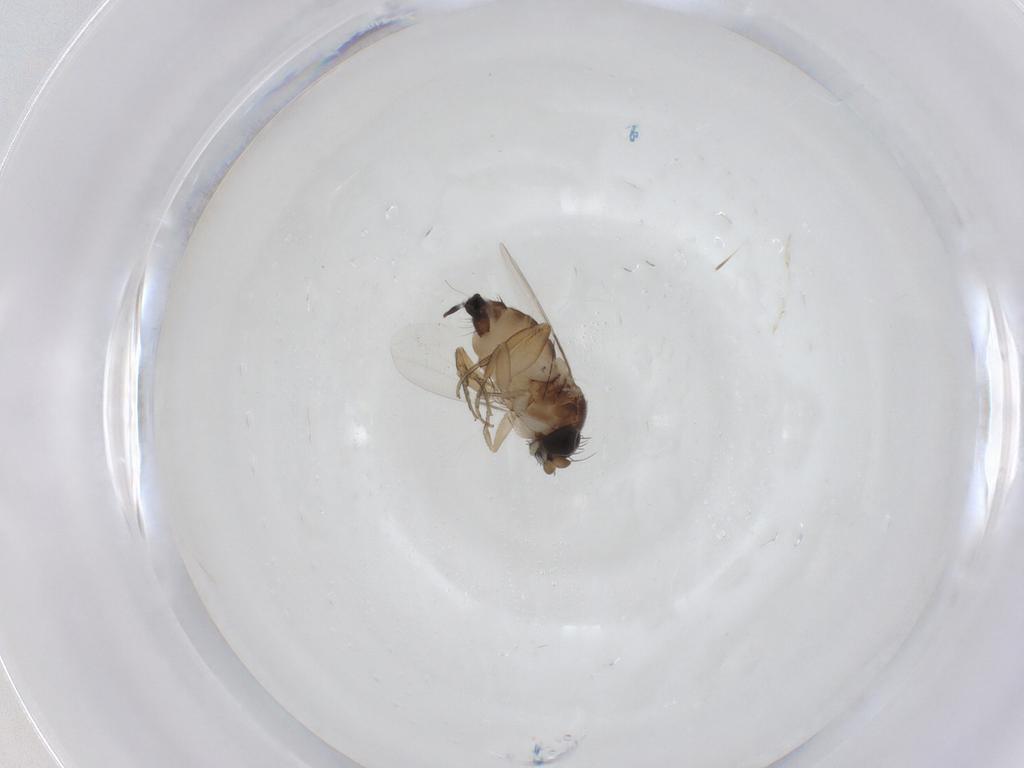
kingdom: Animalia
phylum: Arthropoda
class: Insecta
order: Diptera
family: Phoridae
